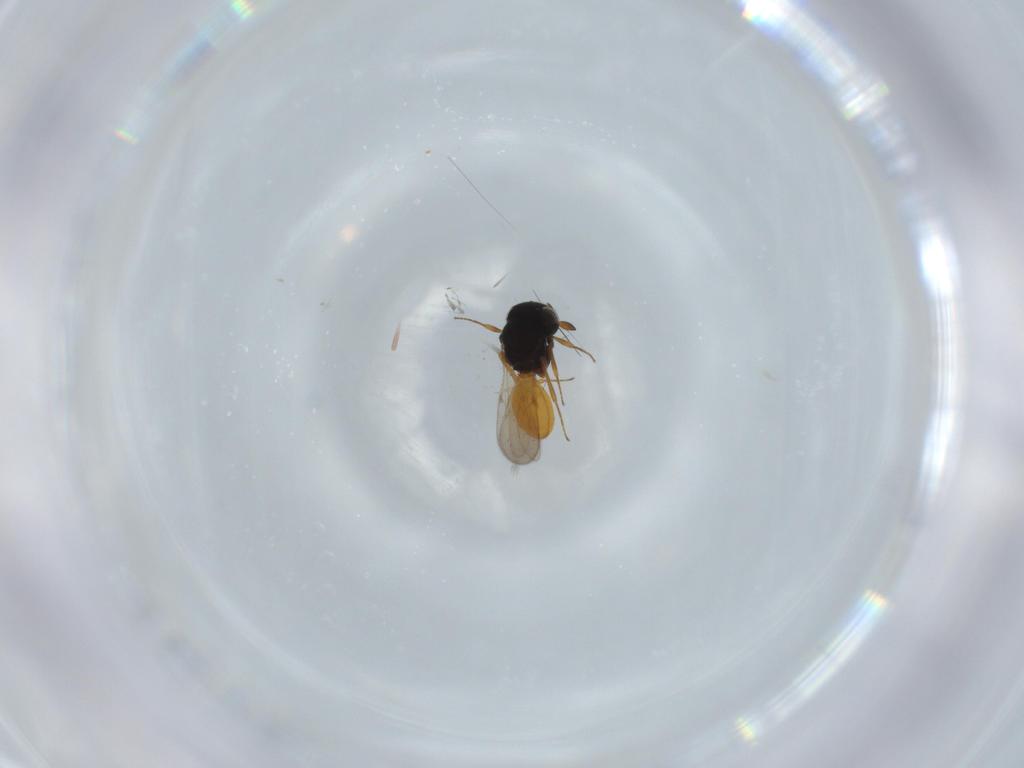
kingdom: Animalia
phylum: Arthropoda
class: Insecta
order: Hymenoptera
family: Scelionidae
